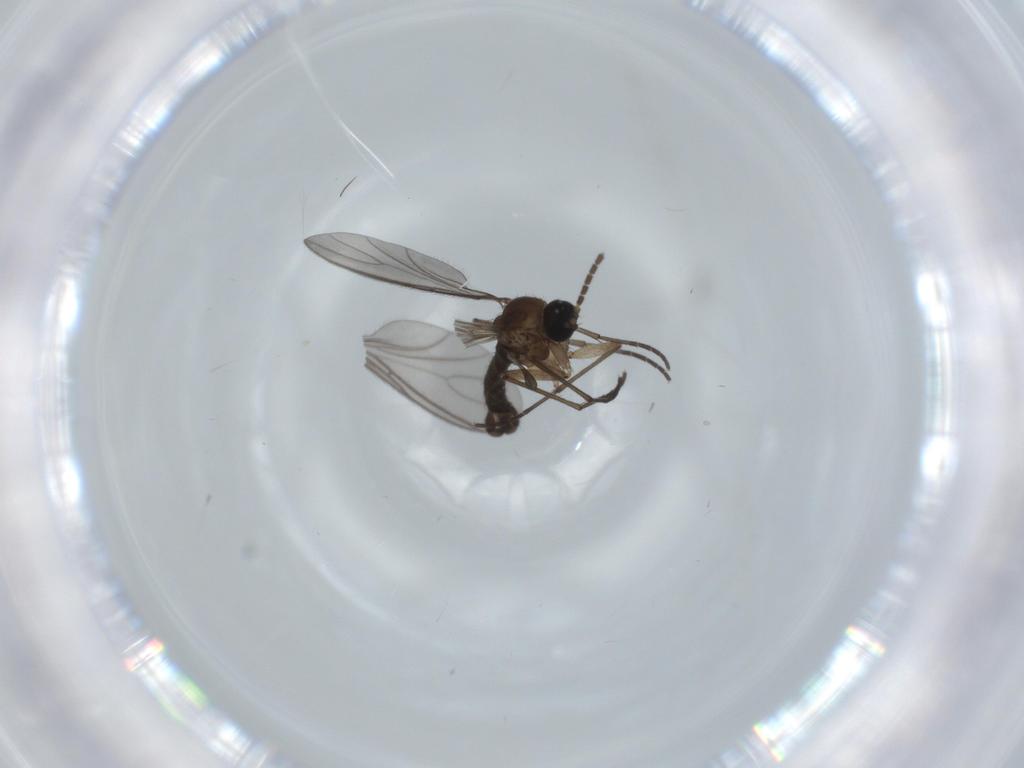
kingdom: Animalia
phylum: Arthropoda
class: Insecta
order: Diptera
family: Sciaridae
